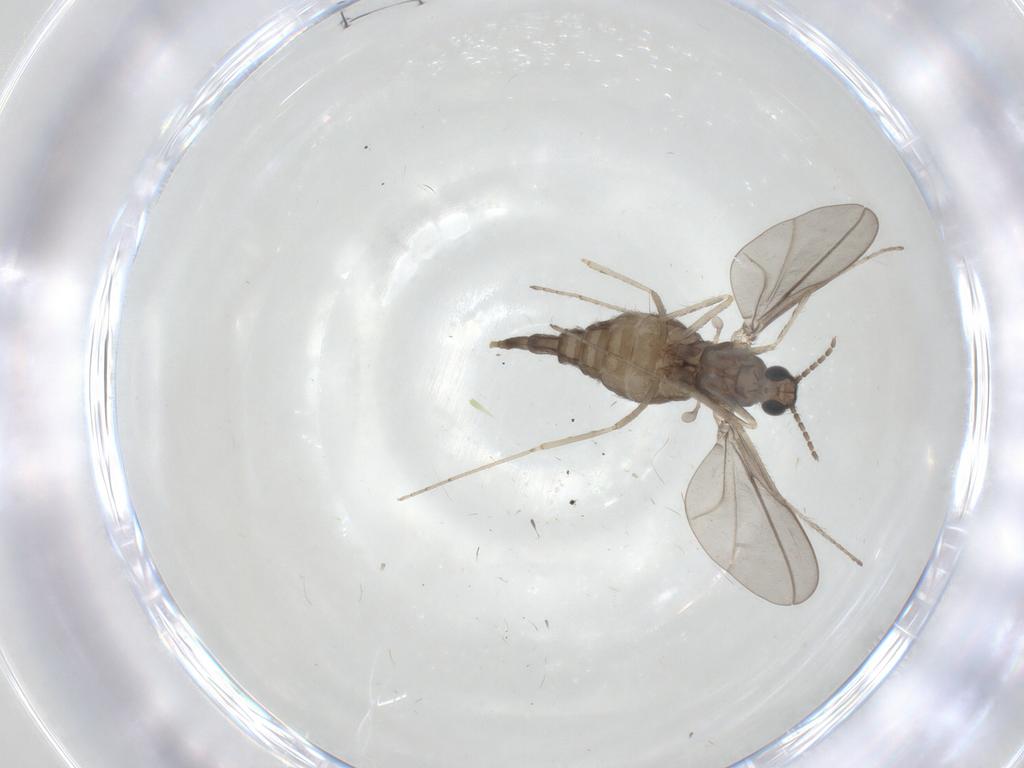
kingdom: Animalia
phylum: Arthropoda
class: Insecta
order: Diptera
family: Cecidomyiidae
